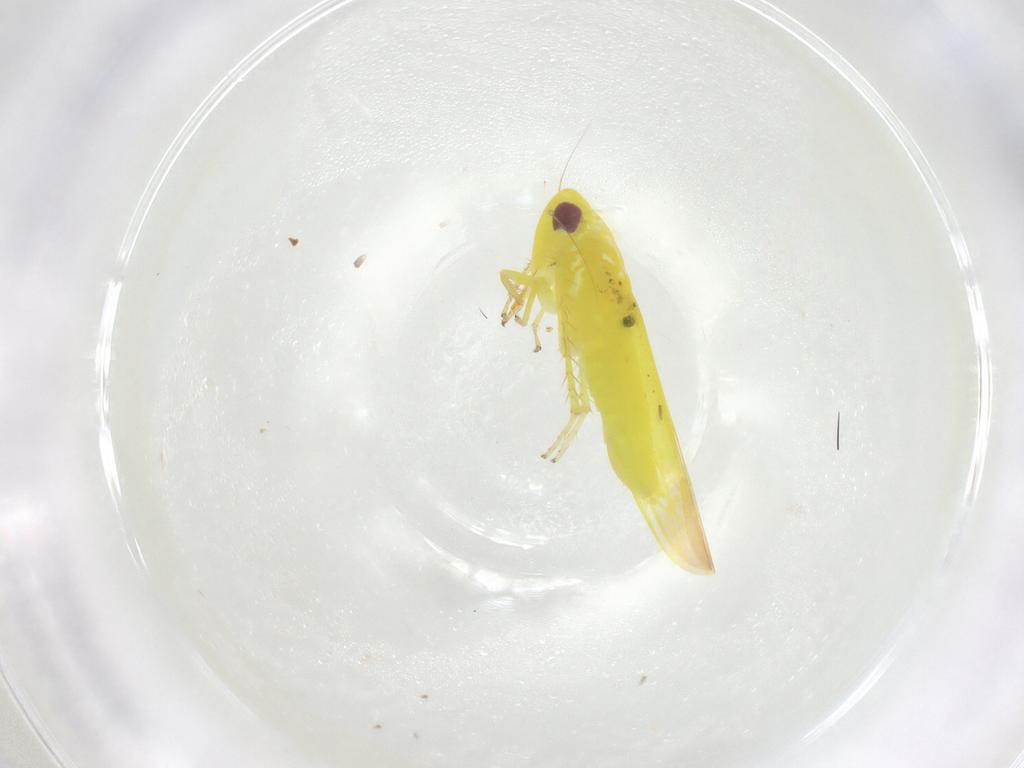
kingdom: Animalia
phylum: Arthropoda
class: Insecta
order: Hemiptera
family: Cicadellidae
